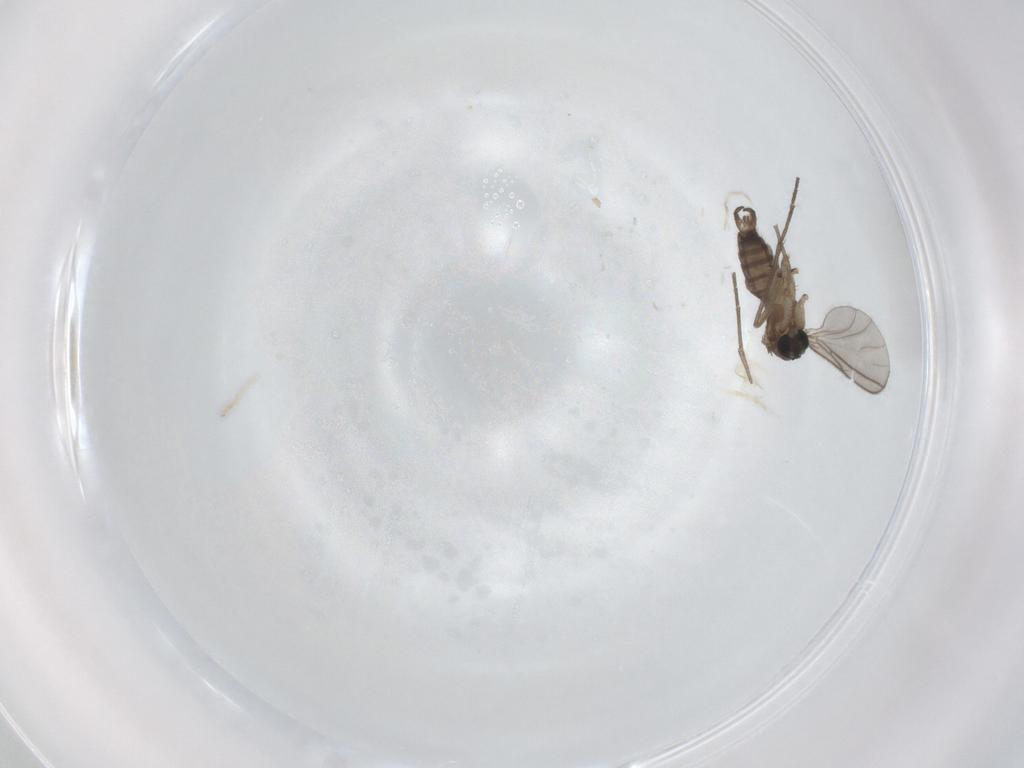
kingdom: Animalia
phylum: Arthropoda
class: Insecta
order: Diptera
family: Sciaridae
